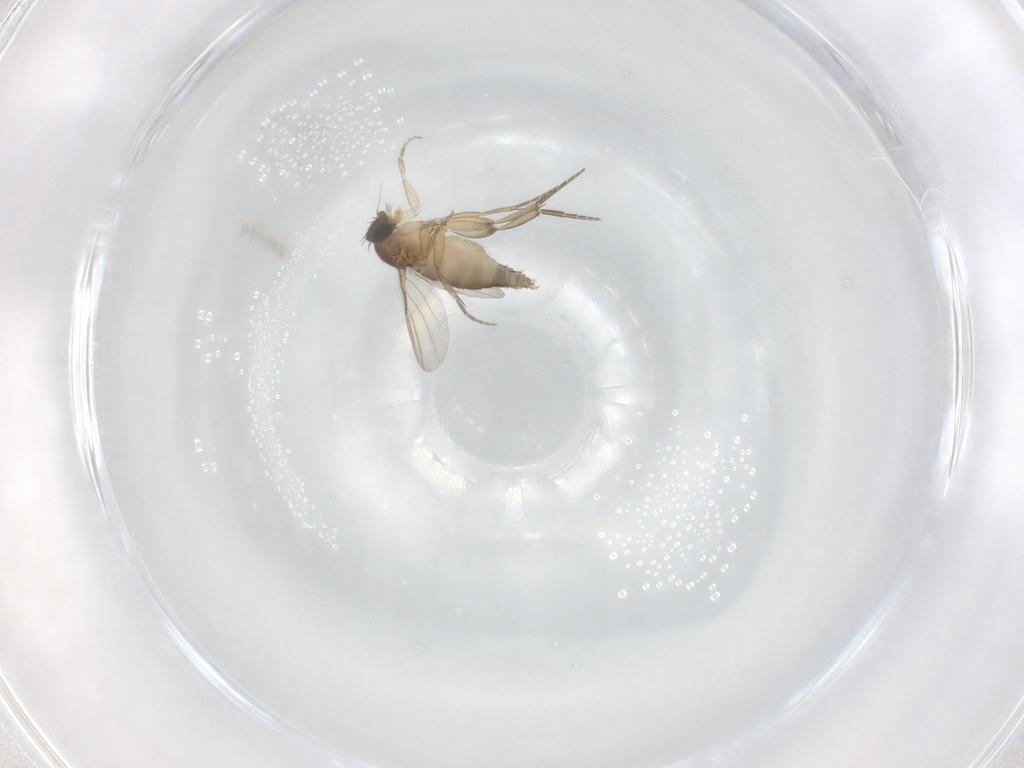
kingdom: Animalia
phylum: Arthropoda
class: Insecta
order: Diptera
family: Phoridae
